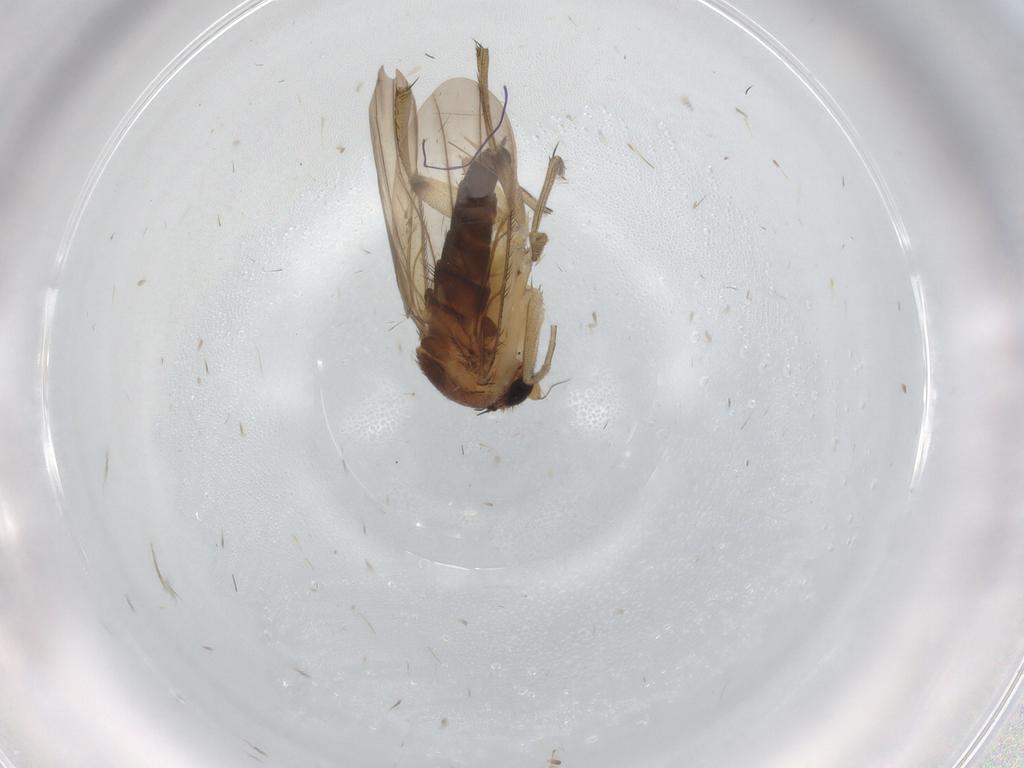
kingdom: Animalia
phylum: Arthropoda
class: Insecta
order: Diptera
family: Phoridae
